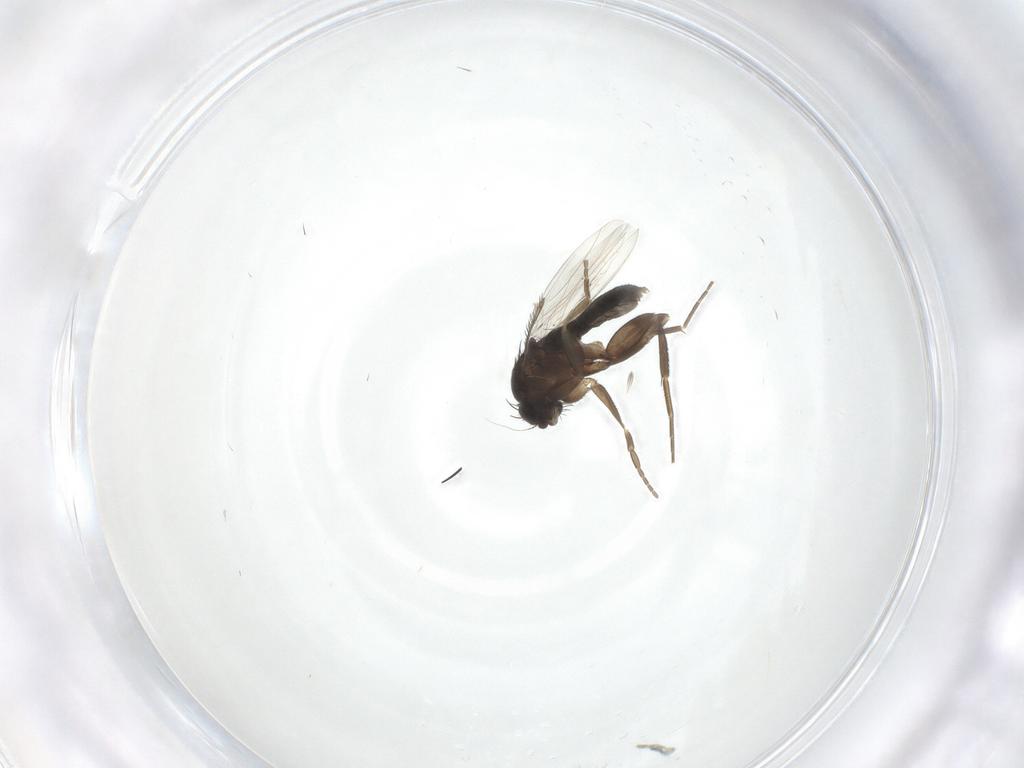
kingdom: Animalia
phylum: Arthropoda
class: Insecta
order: Diptera
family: Phoridae
